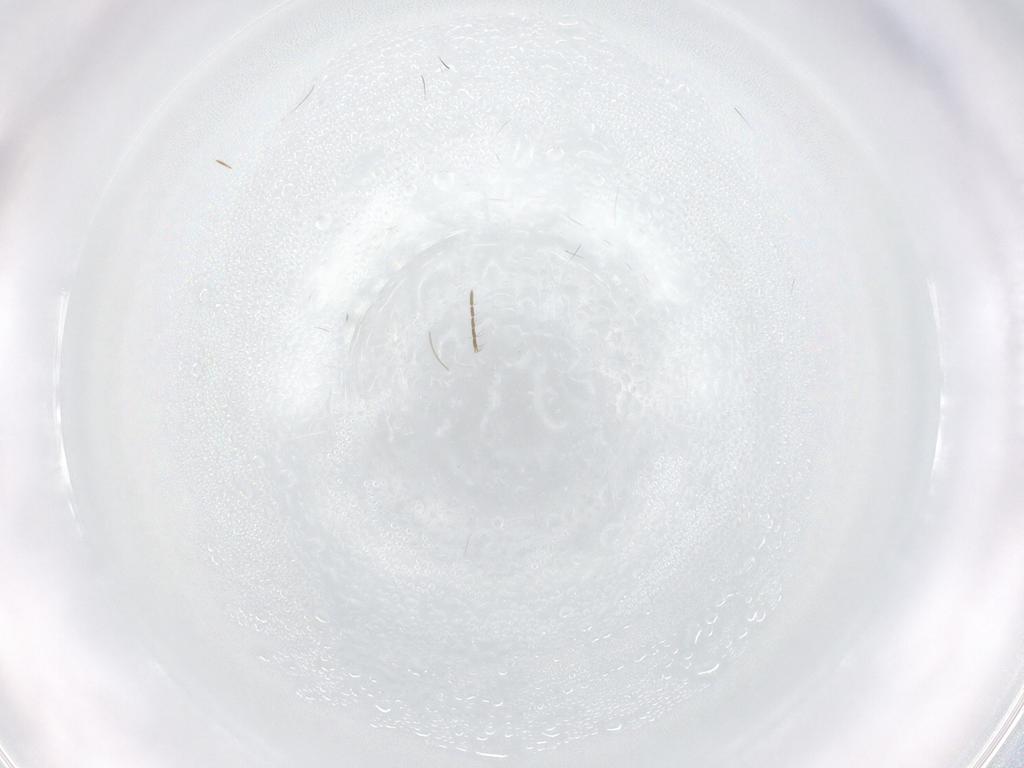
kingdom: Animalia
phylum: Arthropoda
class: Insecta
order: Diptera
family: Ceratopogonidae
